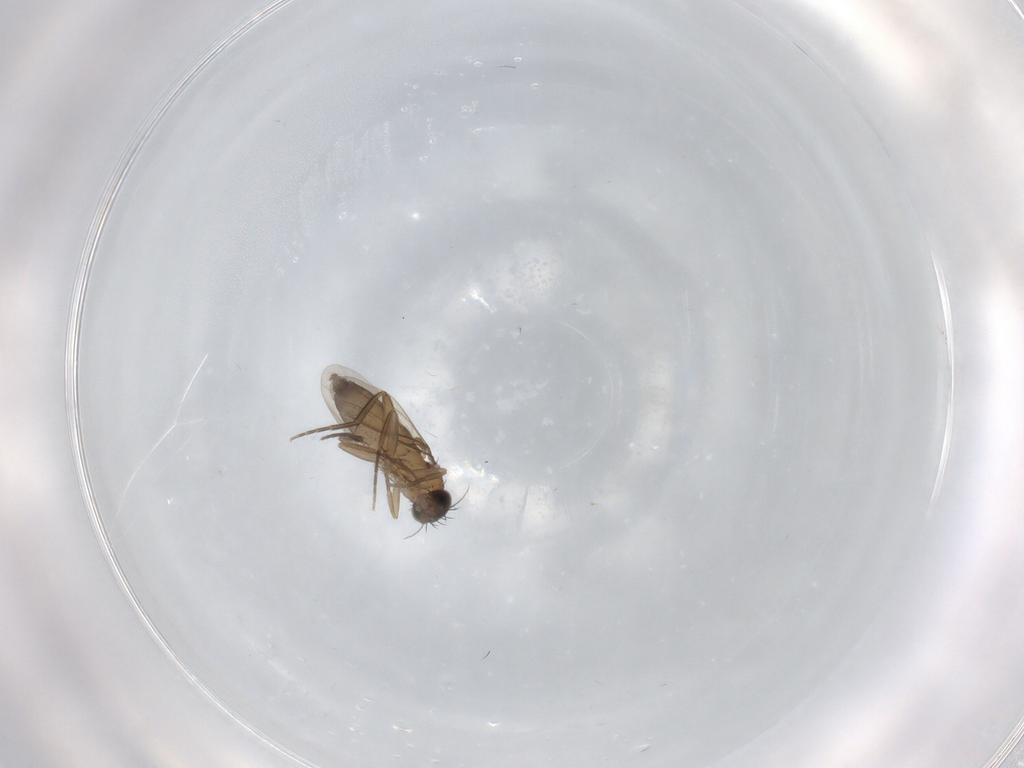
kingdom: Animalia
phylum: Arthropoda
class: Insecta
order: Diptera
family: Phoridae
